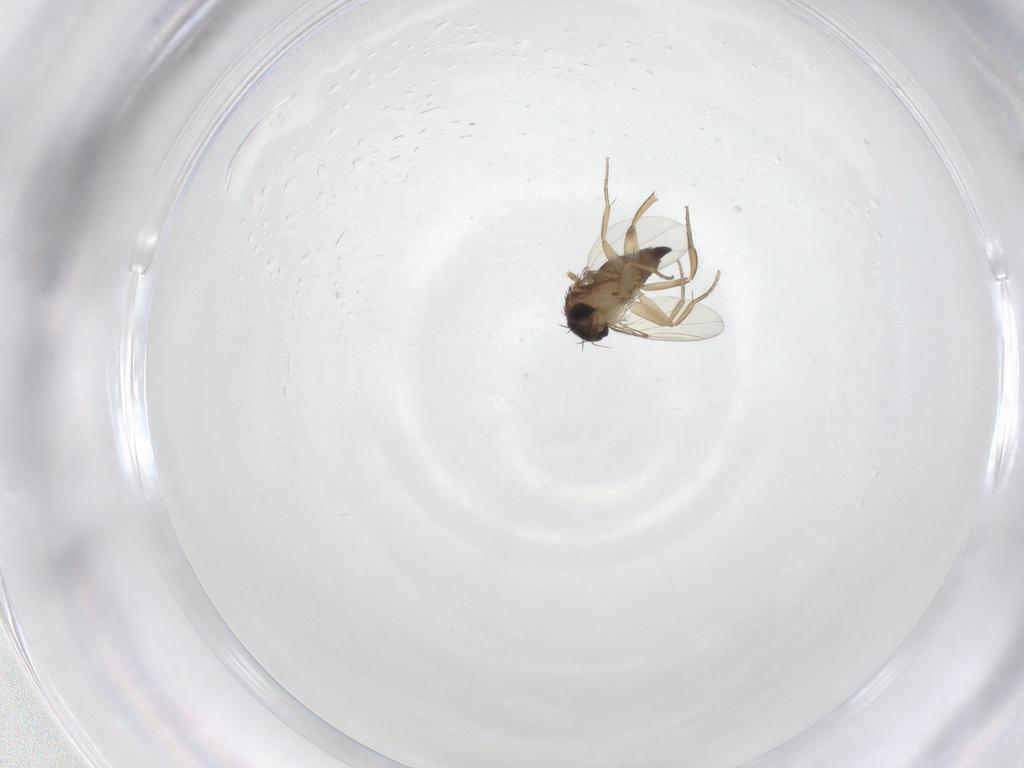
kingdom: Animalia
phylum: Arthropoda
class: Insecta
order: Diptera
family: Phoridae
